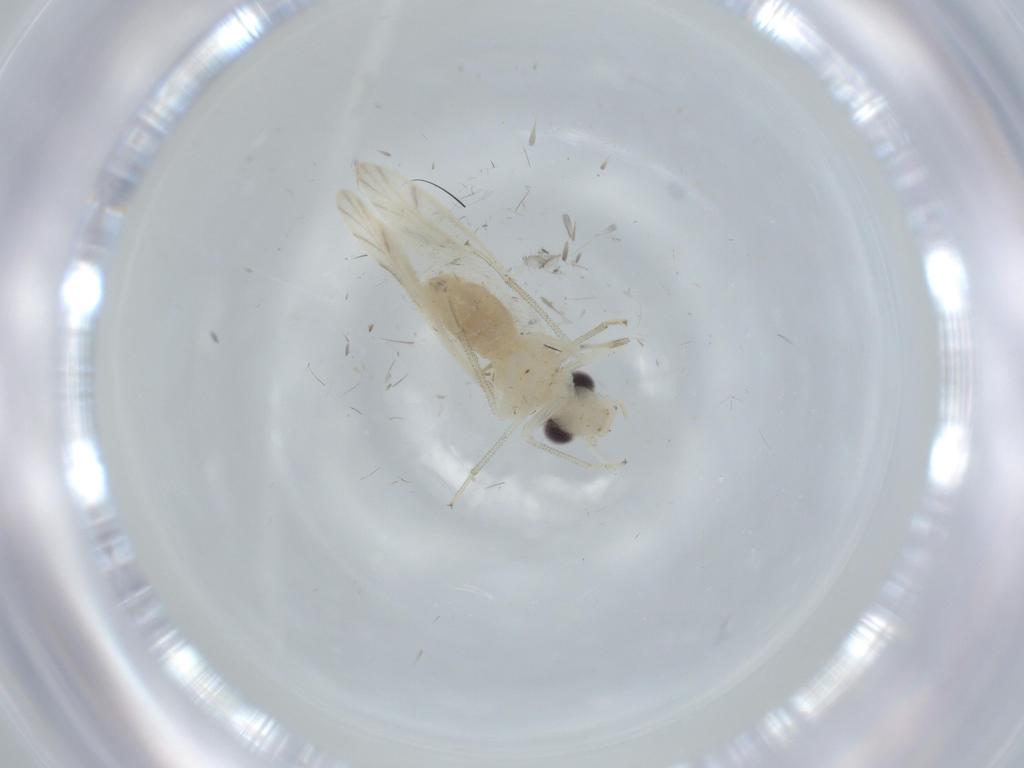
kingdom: Animalia
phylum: Arthropoda
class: Insecta
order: Psocodea
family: Caeciliusidae
